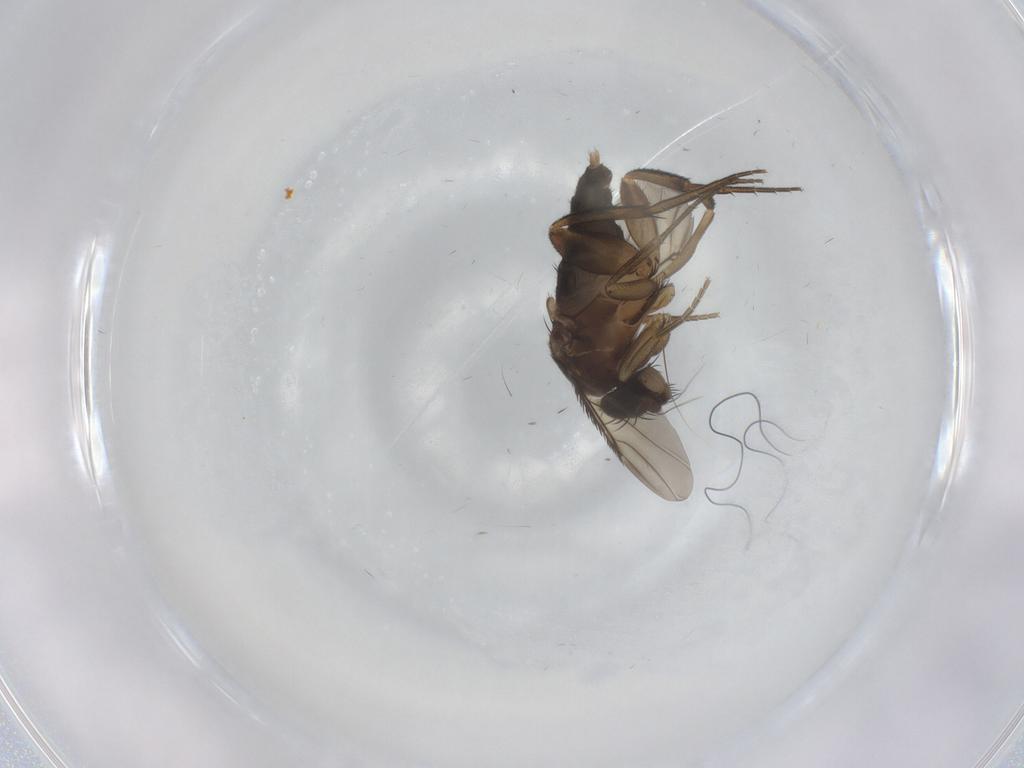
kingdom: Animalia
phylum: Arthropoda
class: Insecta
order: Diptera
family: Phoridae
